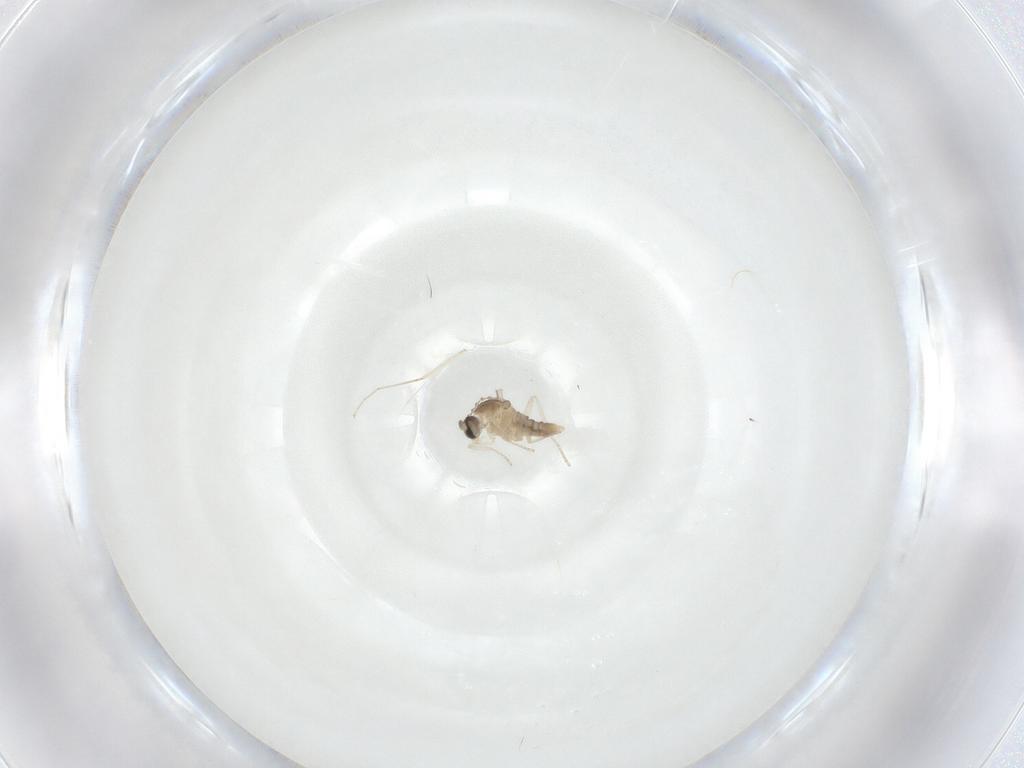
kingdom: Animalia
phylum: Arthropoda
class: Insecta
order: Diptera
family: Cecidomyiidae
